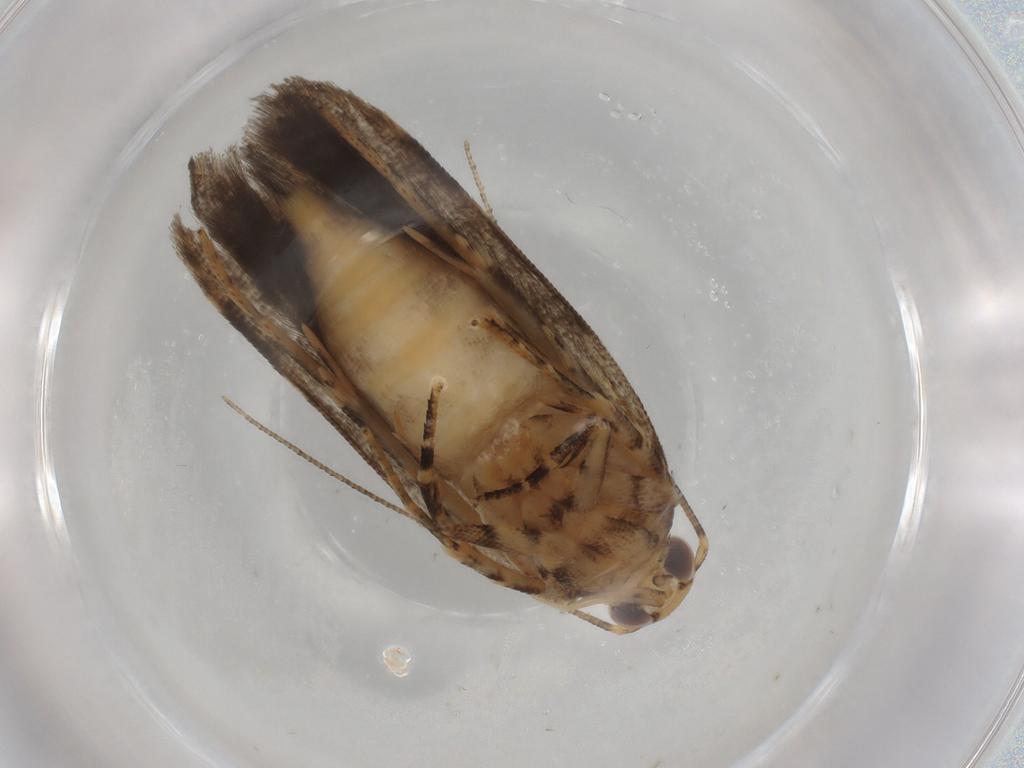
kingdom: Animalia
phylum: Arthropoda
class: Insecta
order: Lepidoptera
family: Gelechiidae
